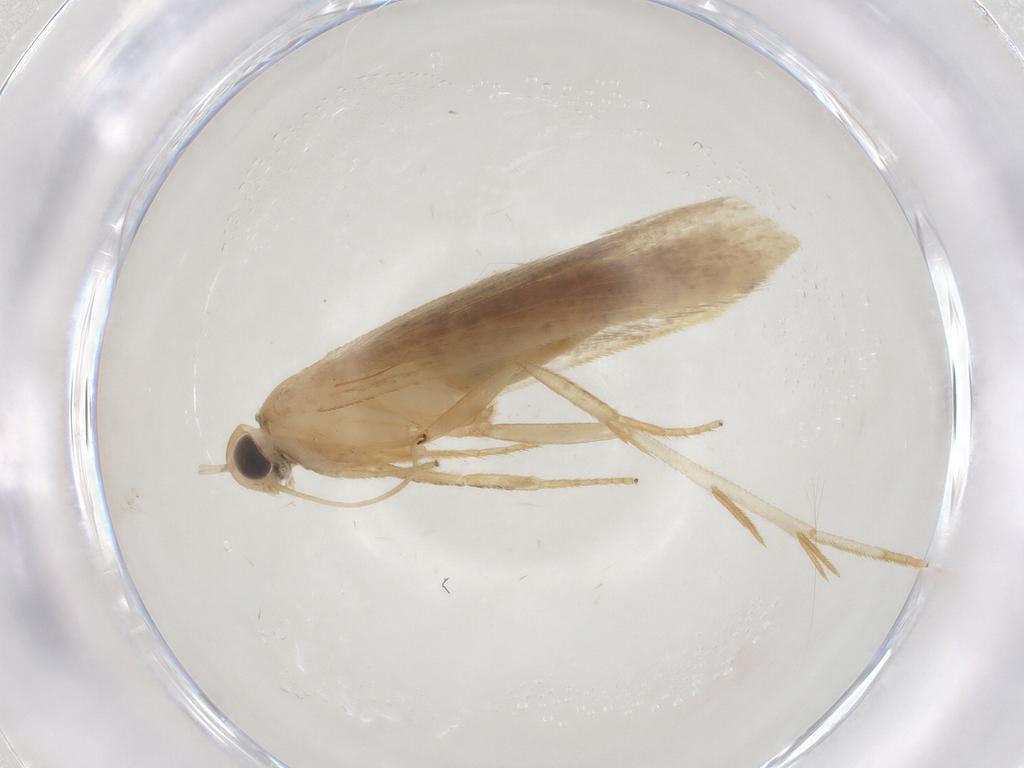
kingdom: Animalia
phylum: Arthropoda
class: Insecta
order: Lepidoptera
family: Gelechiidae
